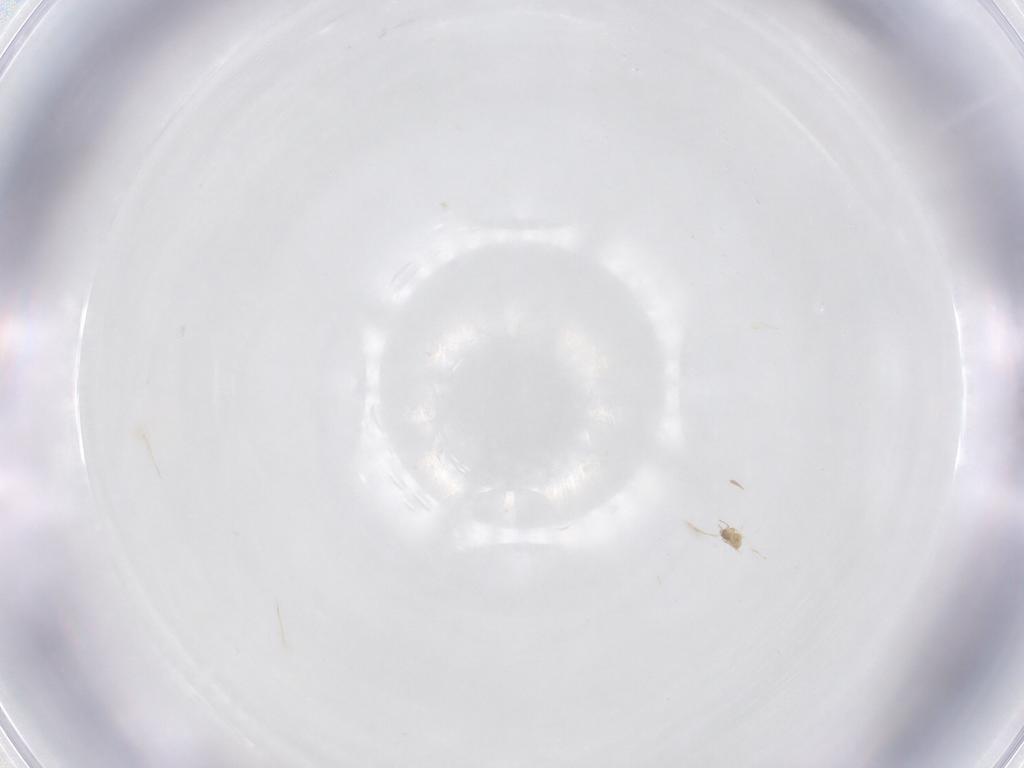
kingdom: Animalia
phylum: Arthropoda
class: Insecta
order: Hymenoptera
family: Mymaridae
